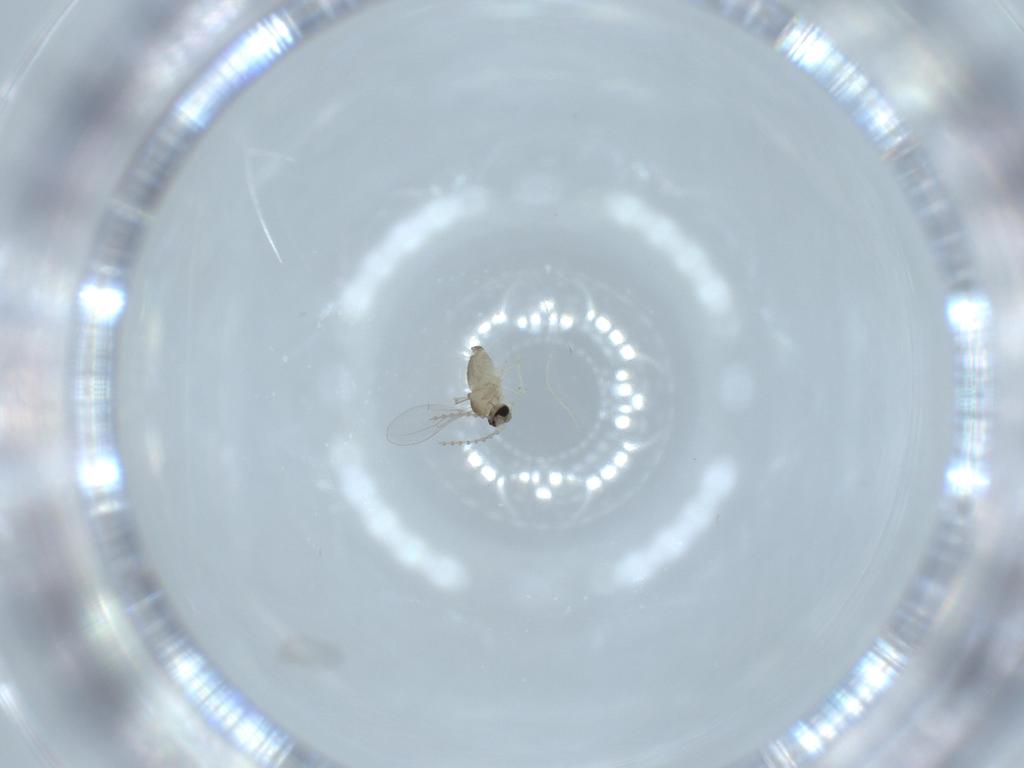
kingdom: Animalia
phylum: Arthropoda
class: Insecta
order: Diptera
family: Cecidomyiidae
